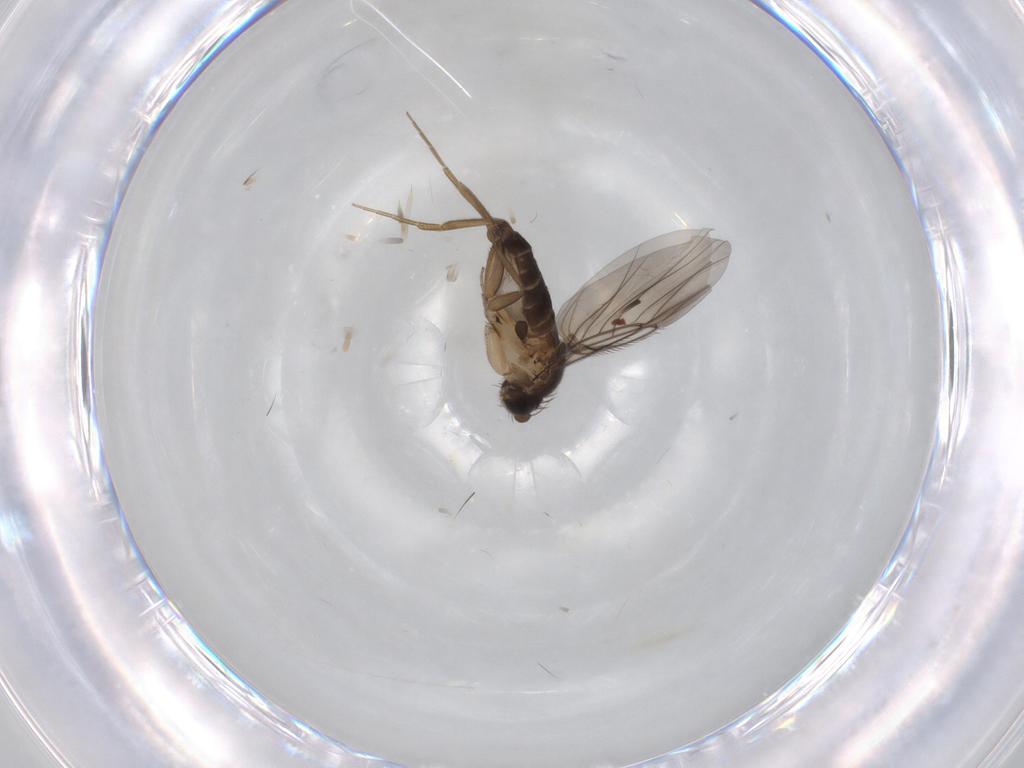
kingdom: Animalia
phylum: Arthropoda
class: Insecta
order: Diptera
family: Phoridae
